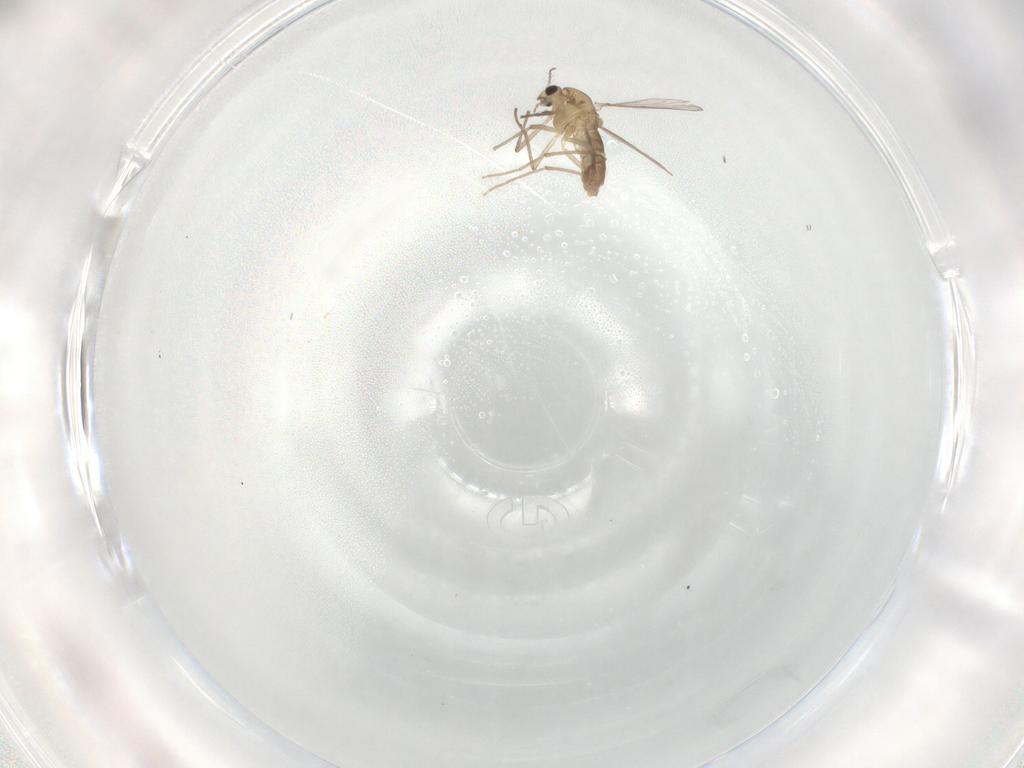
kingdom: Animalia
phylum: Arthropoda
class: Insecta
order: Diptera
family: Chironomidae
